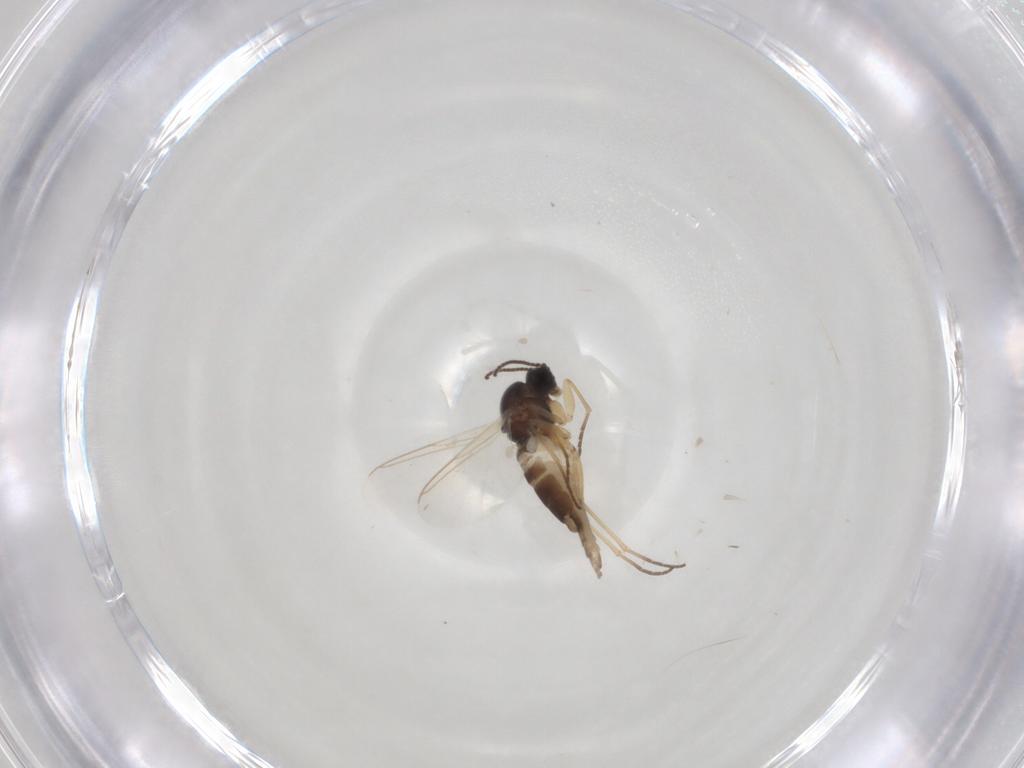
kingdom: Animalia
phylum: Arthropoda
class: Insecta
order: Diptera
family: Sciaridae
